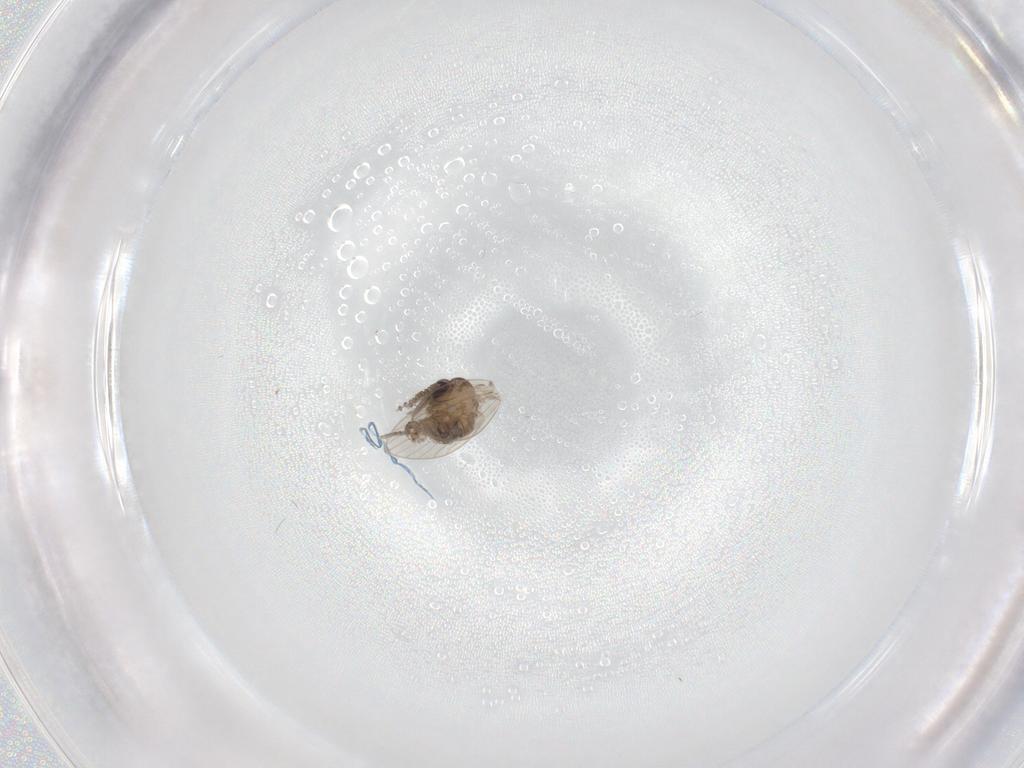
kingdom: Animalia
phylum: Arthropoda
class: Insecta
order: Diptera
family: Psychodidae
